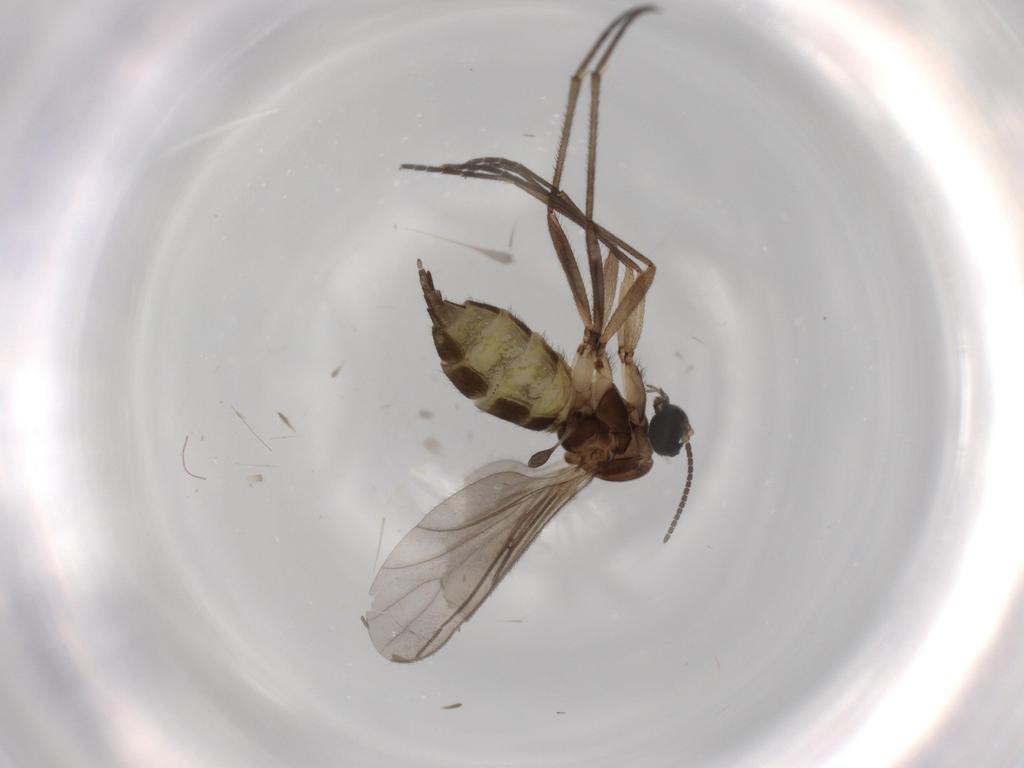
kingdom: Animalia
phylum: Arthropoda
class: Insecta
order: Diptera
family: Sciaridae
